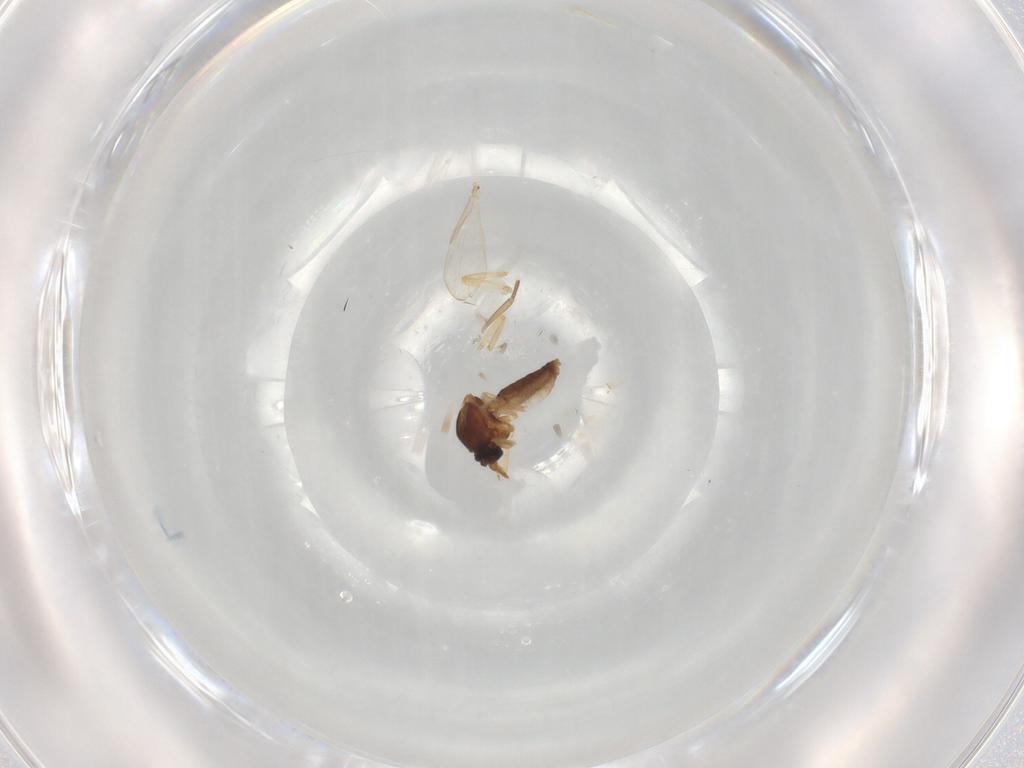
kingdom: Animalia
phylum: Arthropoda
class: Insecta
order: Diptera
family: Ceratopogonidae
